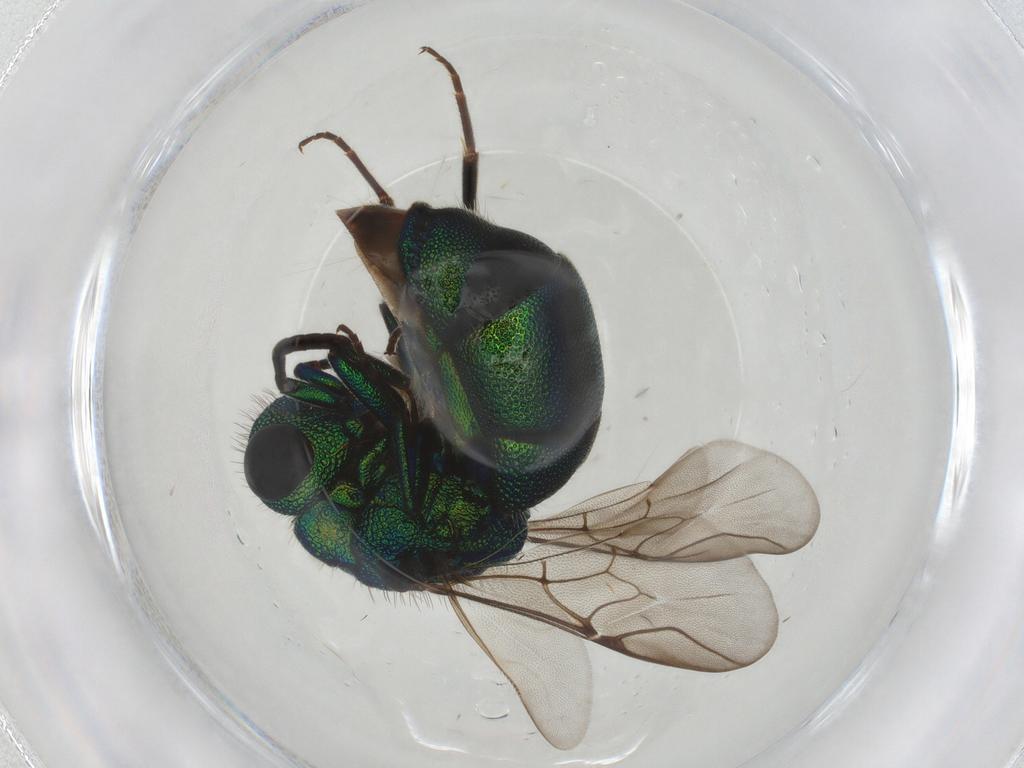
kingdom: Animalia
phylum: Arthropoda
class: Insecta
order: Hymenoptera
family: Chrysididae
